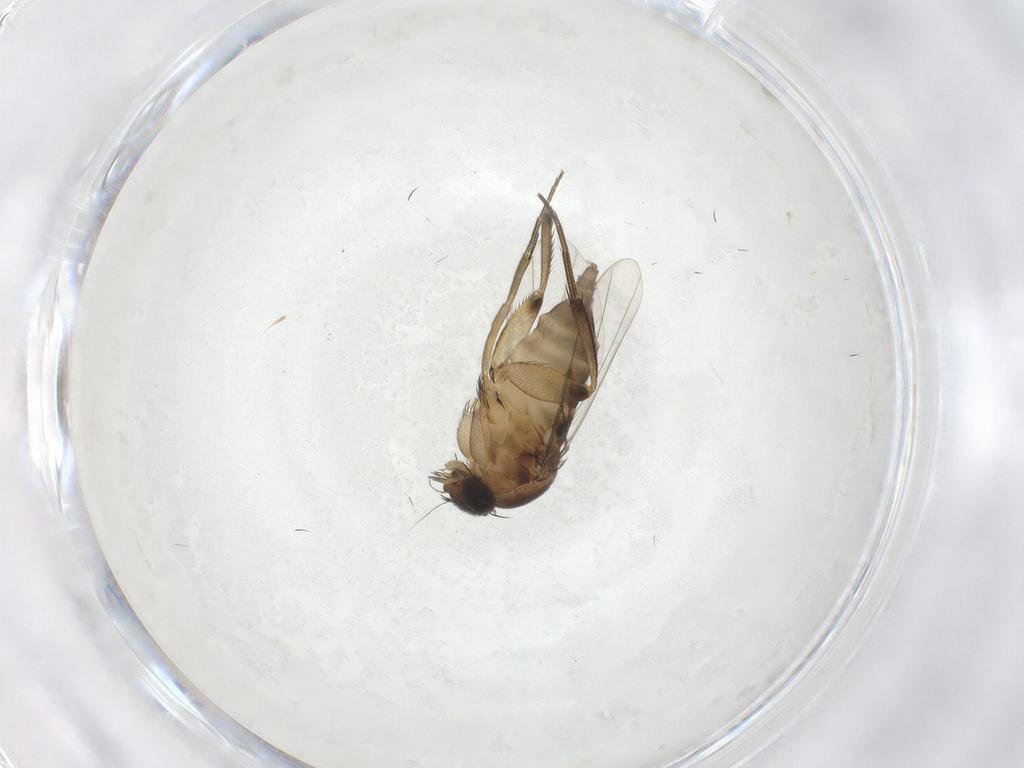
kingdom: Animalia
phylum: Arthropoda
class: Insecta
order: Diptera
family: Phoridae
